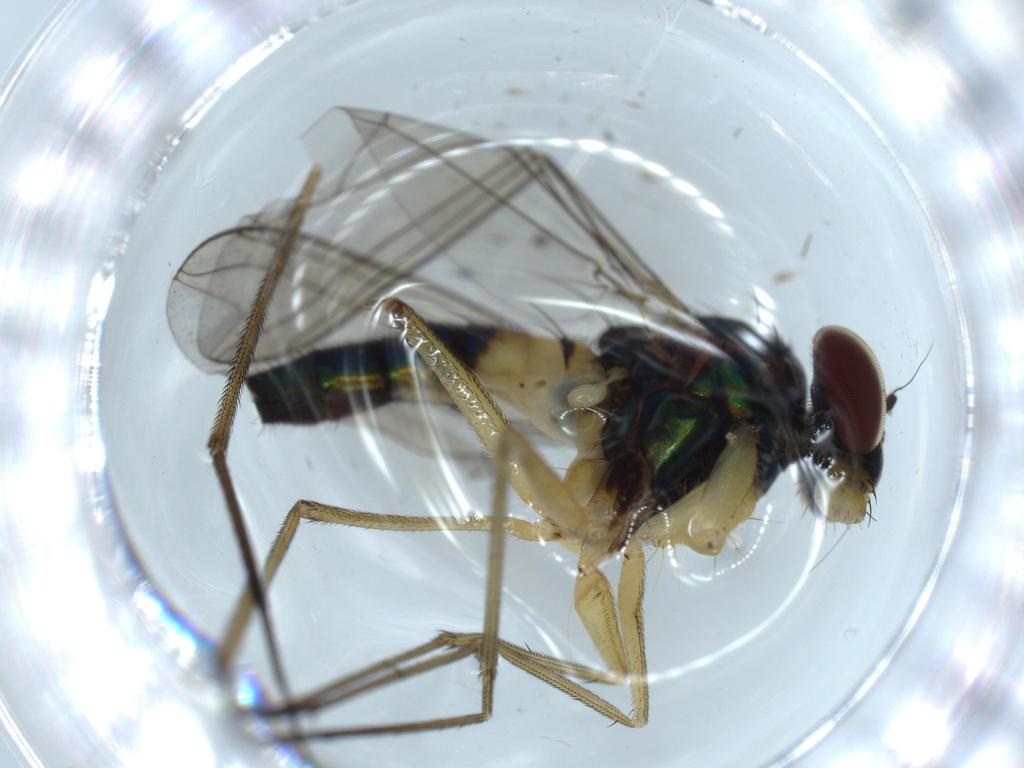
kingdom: Animalia
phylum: Arthropoda
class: Insecta
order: Diptera
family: Dolichopodidae
